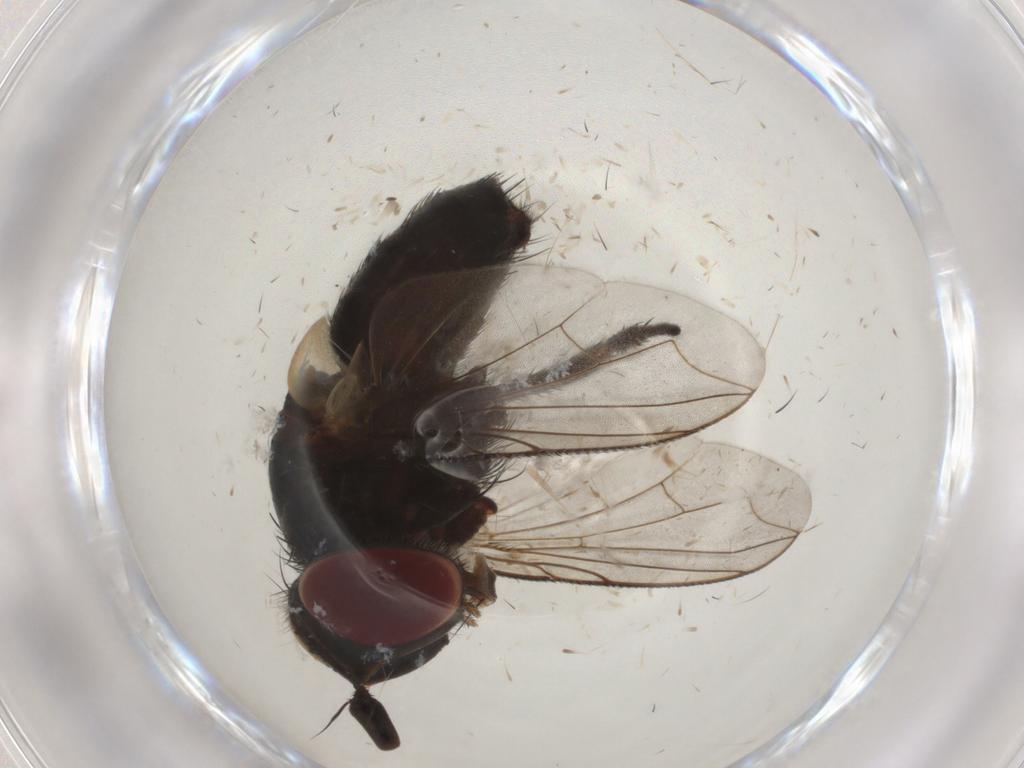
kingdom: Animalia
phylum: Arthropoda
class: Insecta
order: Diptera
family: Tachinidae
